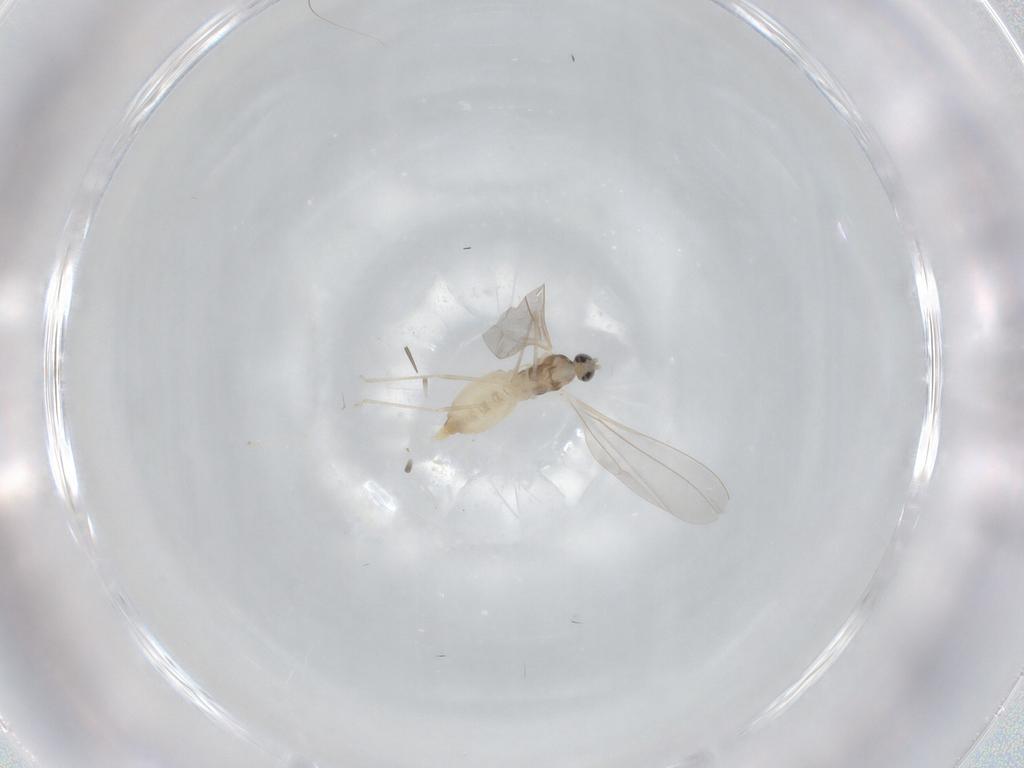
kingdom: Animalia
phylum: Arthropoda
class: Insecta
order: Diptera
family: Cecidomyiidae
